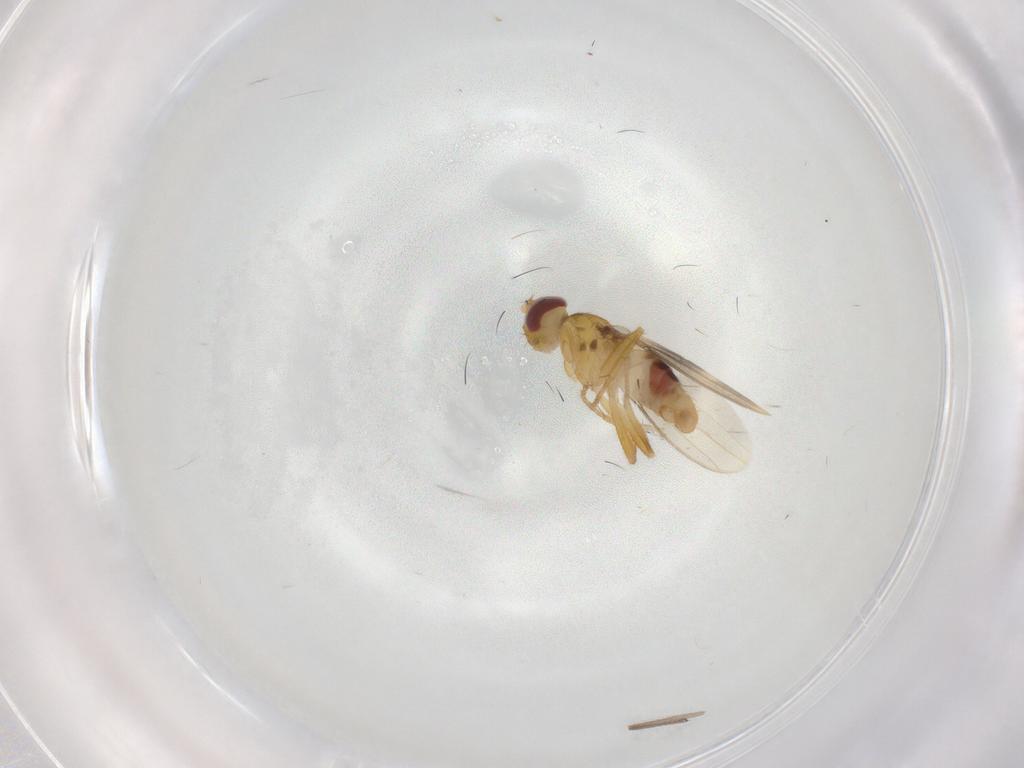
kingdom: Animalia
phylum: Arthropoda
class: Insecta
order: Diptera
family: Periscelididae
